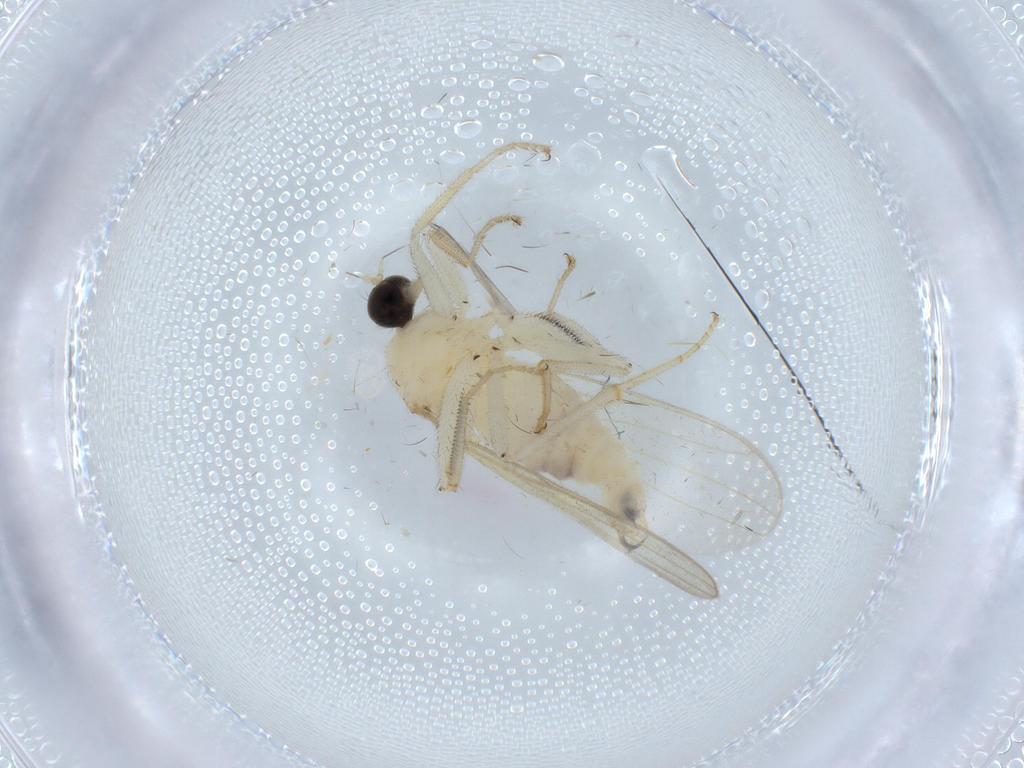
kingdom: Animalia
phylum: Arthropoda
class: Insecta
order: Diptera
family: Hybotidae
